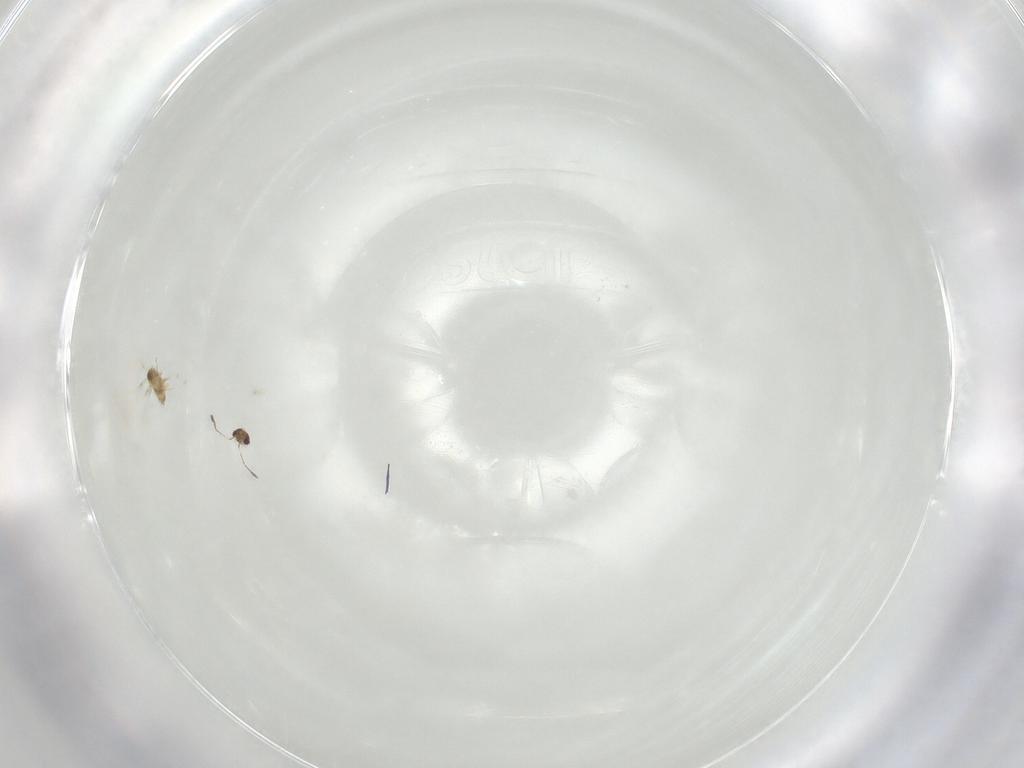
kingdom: Animalia
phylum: Arthropoda
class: Insecta
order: Hymenoptera
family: Mymaridae
